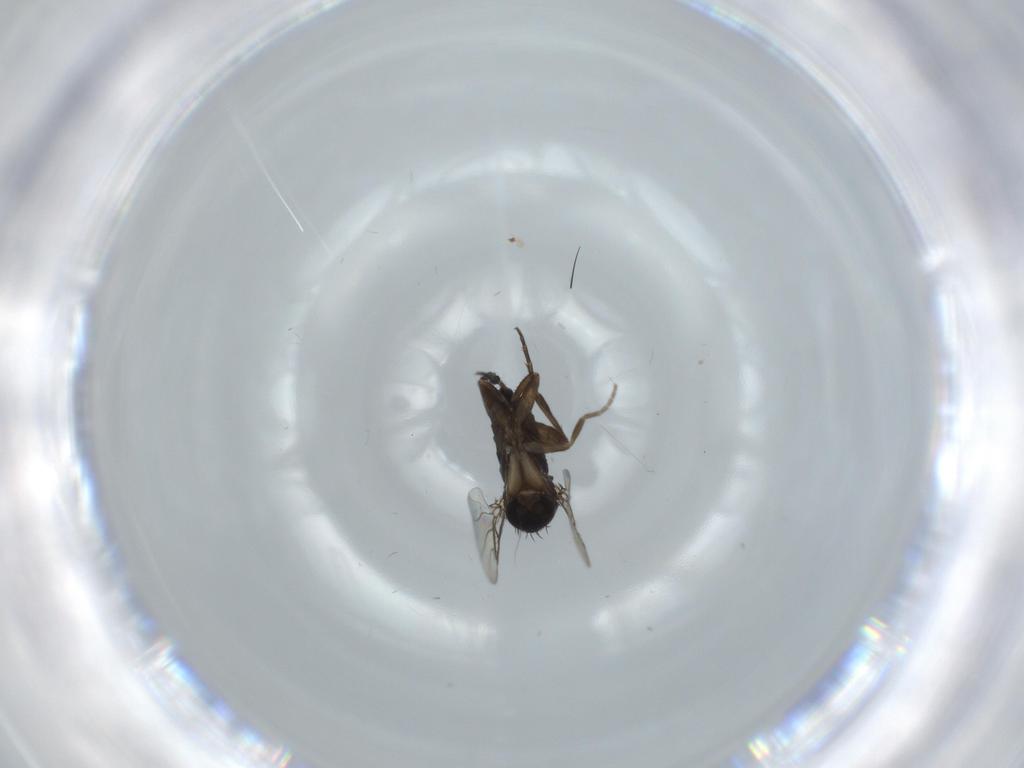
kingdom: Animalia
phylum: Arthropoda
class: Insecta
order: Diptera
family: Phoridae
